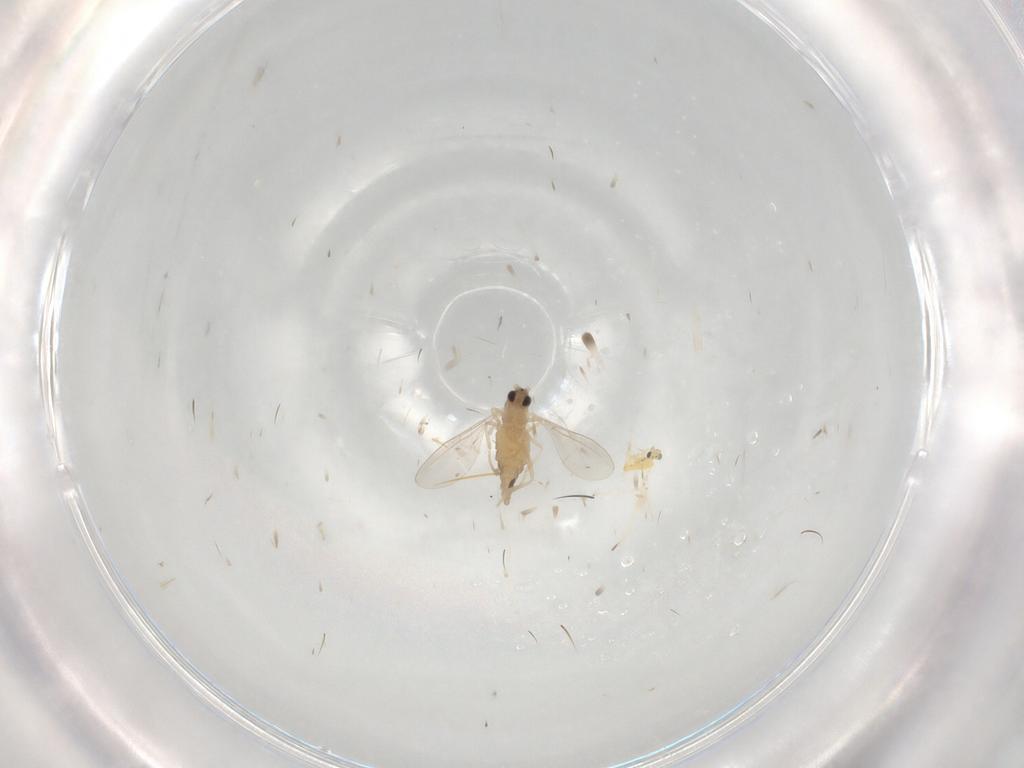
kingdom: Animalia
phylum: Arthropoda
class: Insecta
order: Diptera
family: Cecidomyiidae
